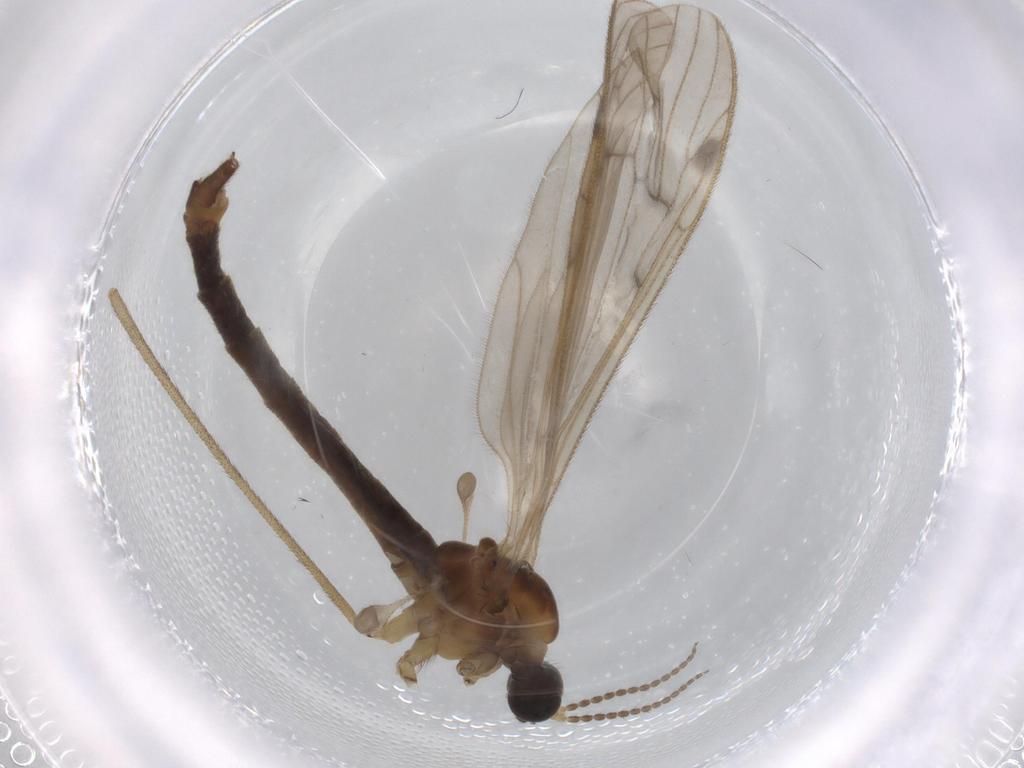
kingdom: Animalia
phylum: Arthropoda
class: Insecta
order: Diptera
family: Cecidomyiidae
